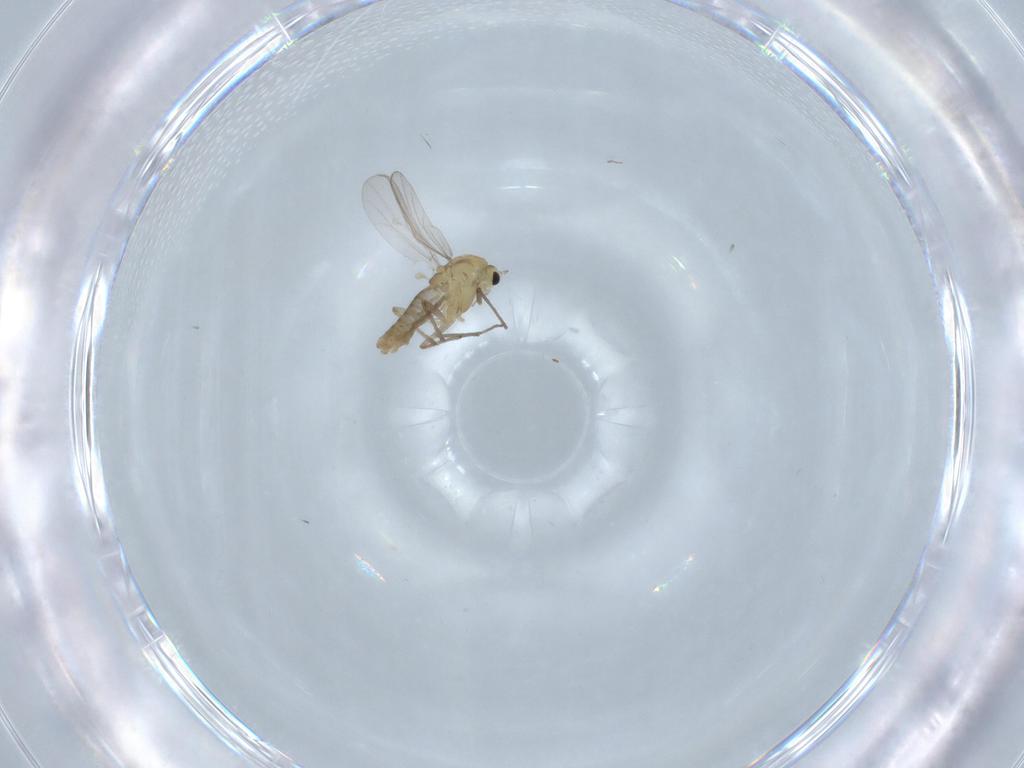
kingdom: Animalia
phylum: Arthropoda
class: Insecta
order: Diptera
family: Chironomidae
